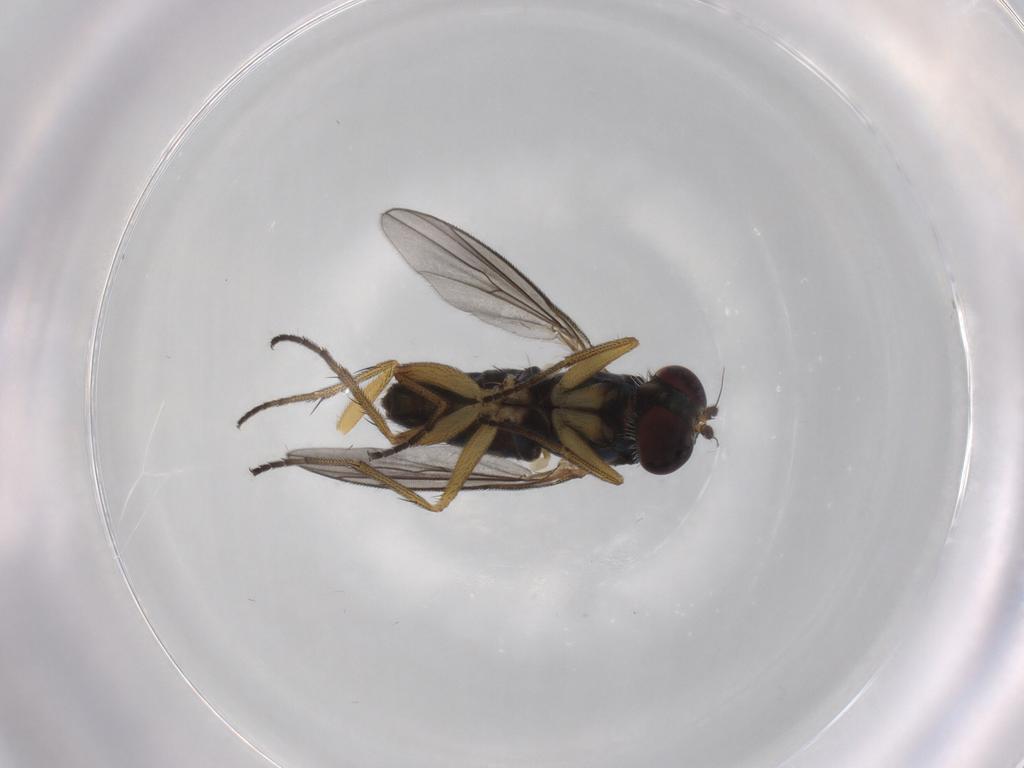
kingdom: Animalia
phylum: Arthropoda
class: Insecta
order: Diptera
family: Dolichopodidae
